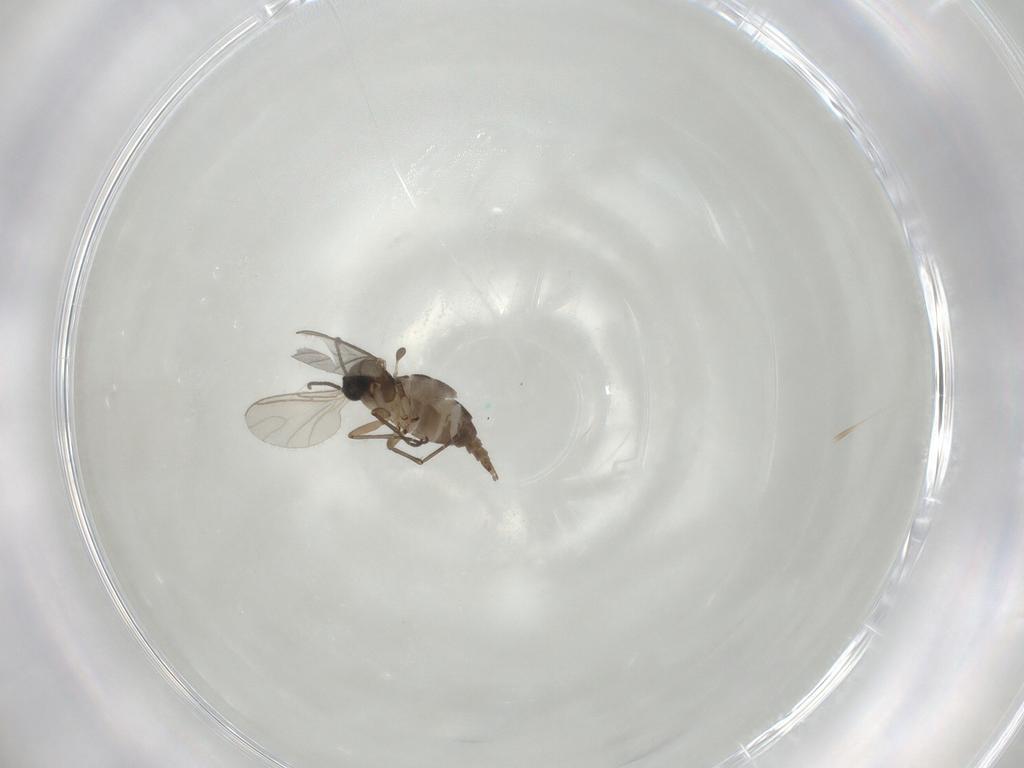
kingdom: Animalia
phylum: Arthropoda
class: Insecta
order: Diptera
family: Sciaridae
